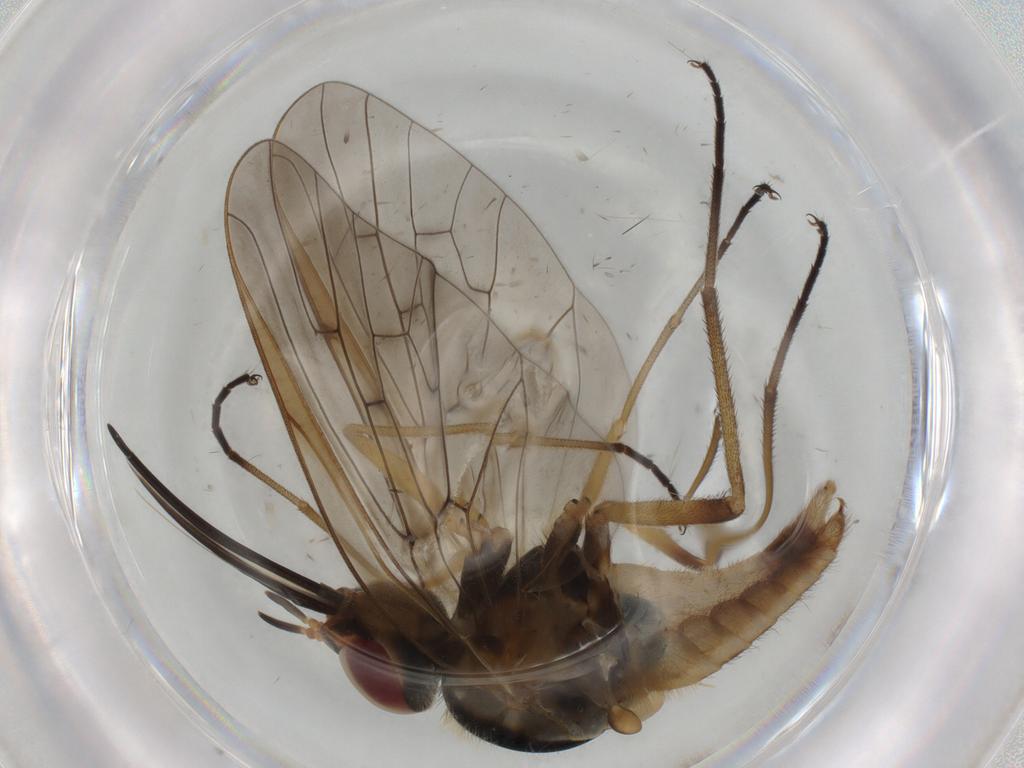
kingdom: Animalia
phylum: Arthropoda
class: Insecta
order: Diptera
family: Bombyliidae
